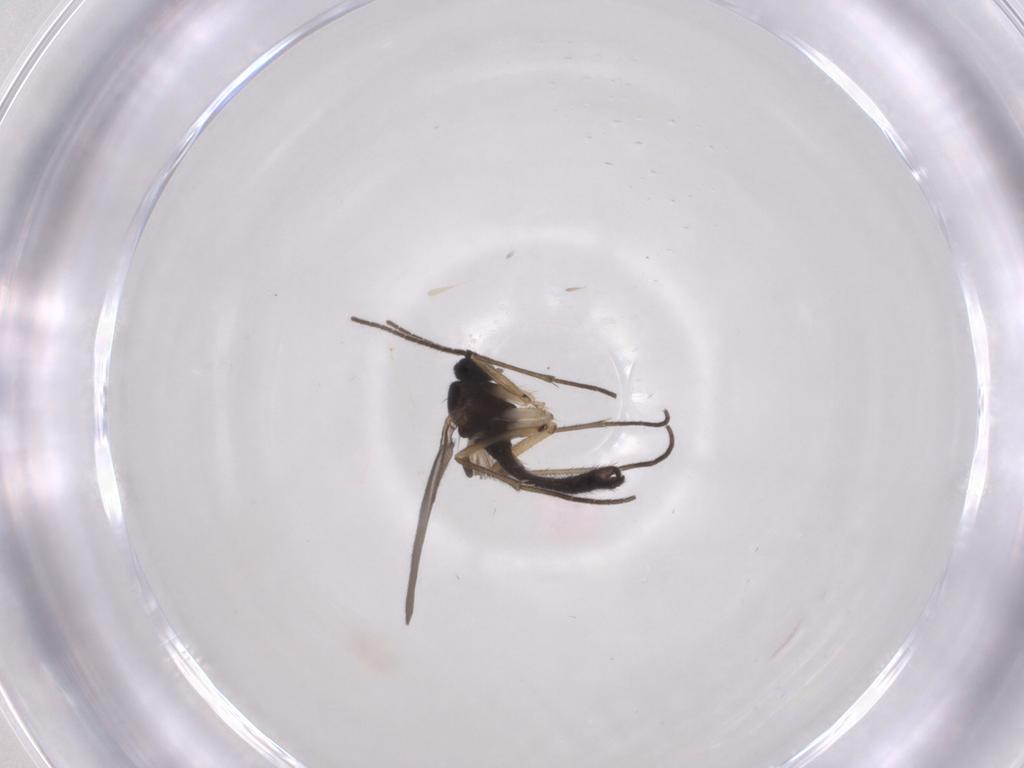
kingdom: Animalia
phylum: Arthropoda
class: Insecta
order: Diptera
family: Sciaridae
